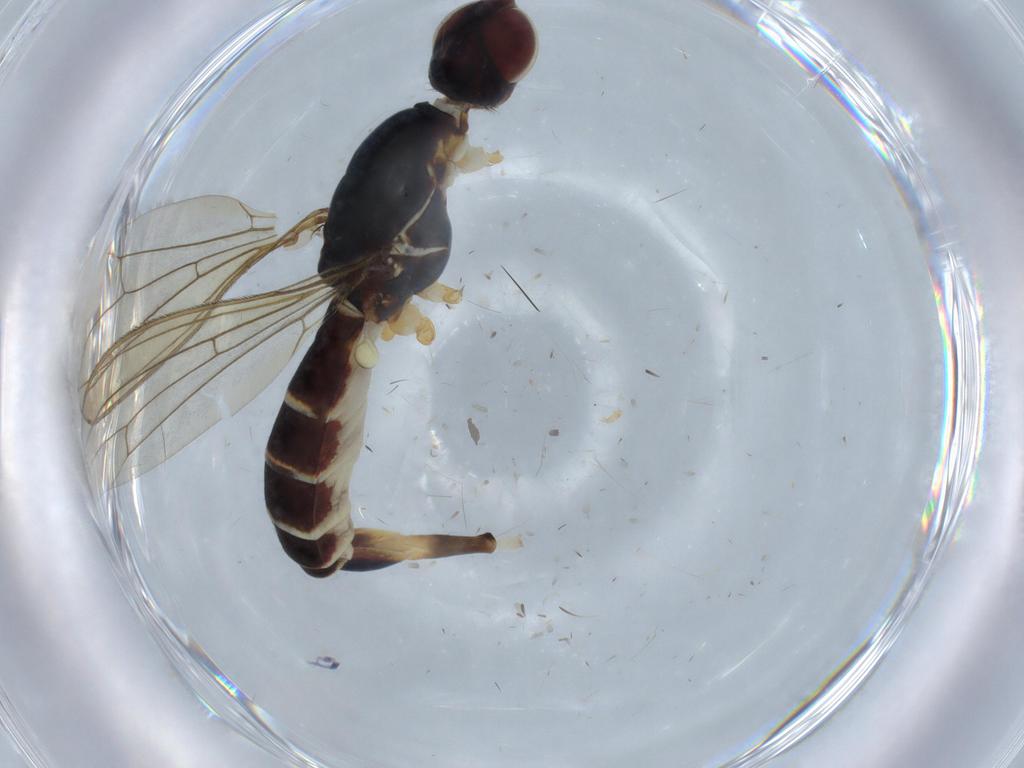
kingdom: Animalia
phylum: Arthropoda
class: Insecta
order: Diptera
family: Micropezidae
